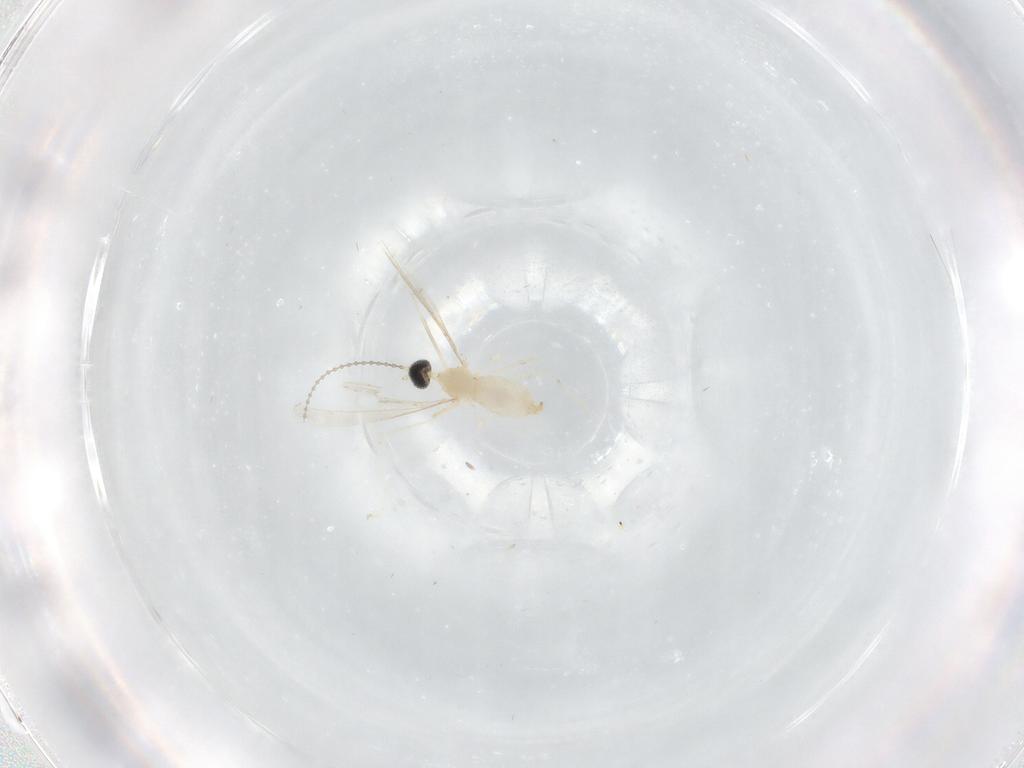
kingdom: Animalia
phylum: Arthropoda
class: Insecta
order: Diptera
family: Cecidomyiidae
